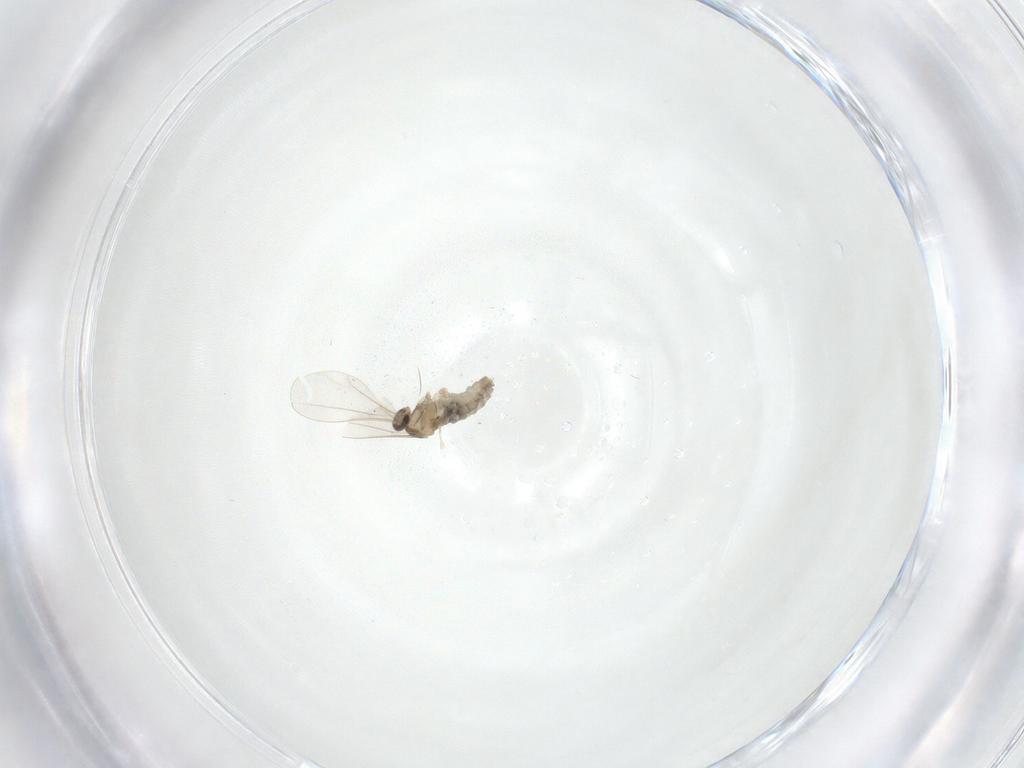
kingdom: Animalia
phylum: Arthropoda
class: Insecta
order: Diptera
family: Cecidomyiidae
